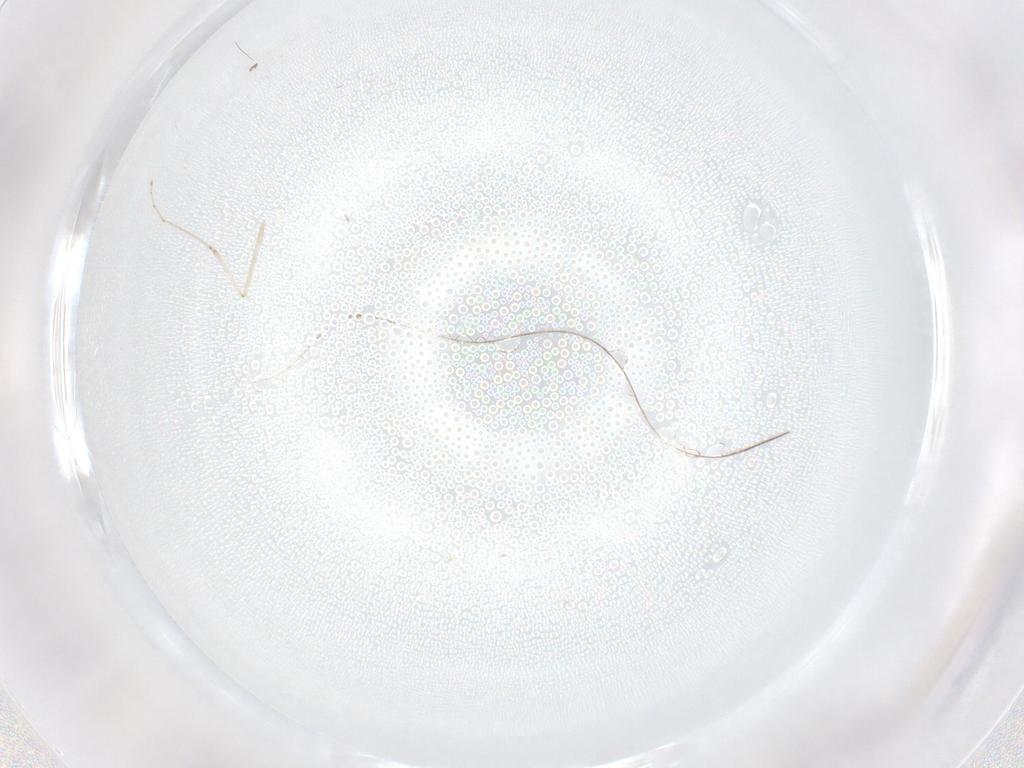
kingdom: Animalia
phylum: Arthropoda
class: Insecta
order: Diptera
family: Cecidomyiidae
